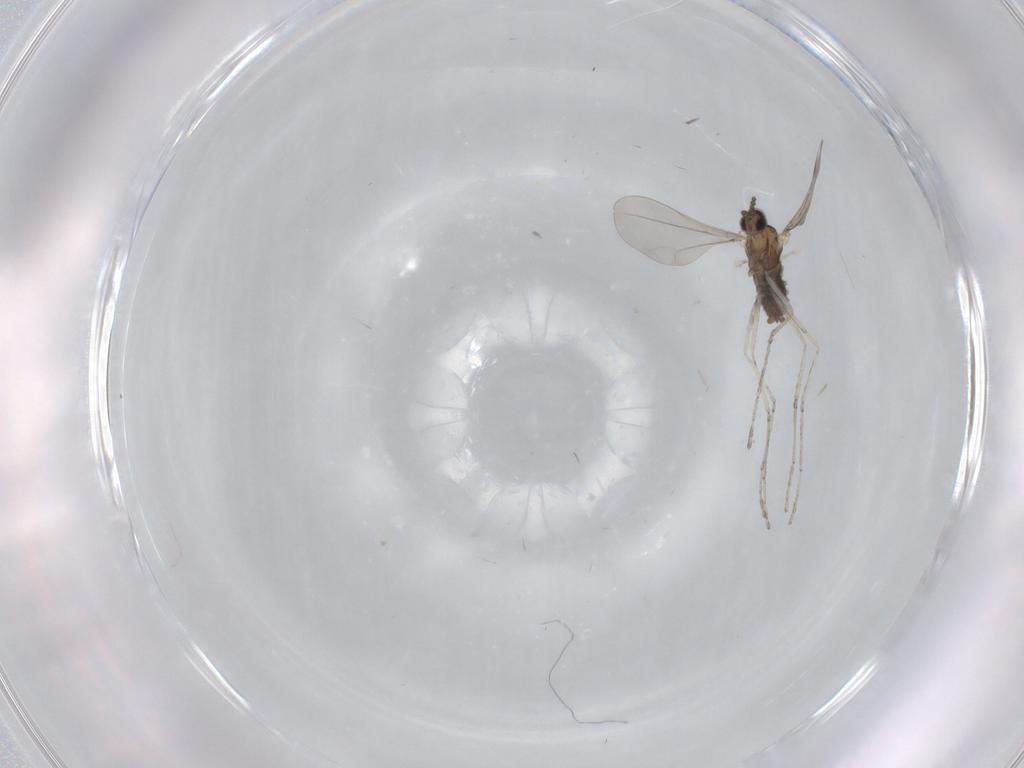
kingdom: Animalia
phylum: Arthropoda
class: Insecta
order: Diptera
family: Cecidomyiidae
